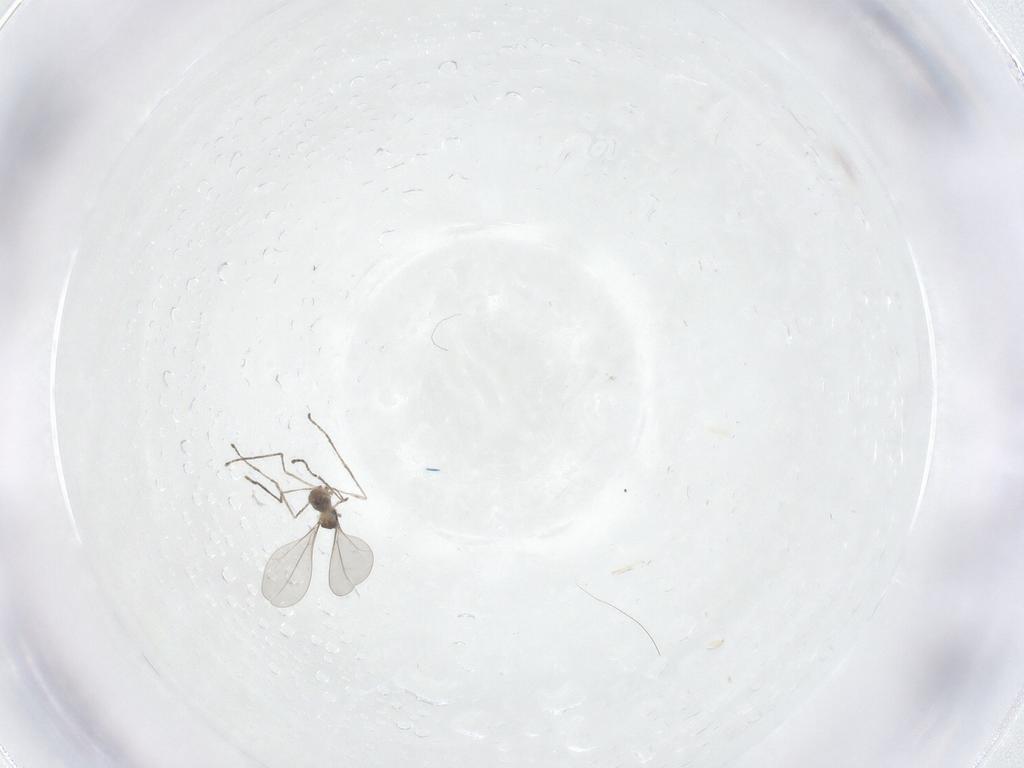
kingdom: Animalia
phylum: Arthropoda
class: Insecta
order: Diptera
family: Cecidomyiidae
